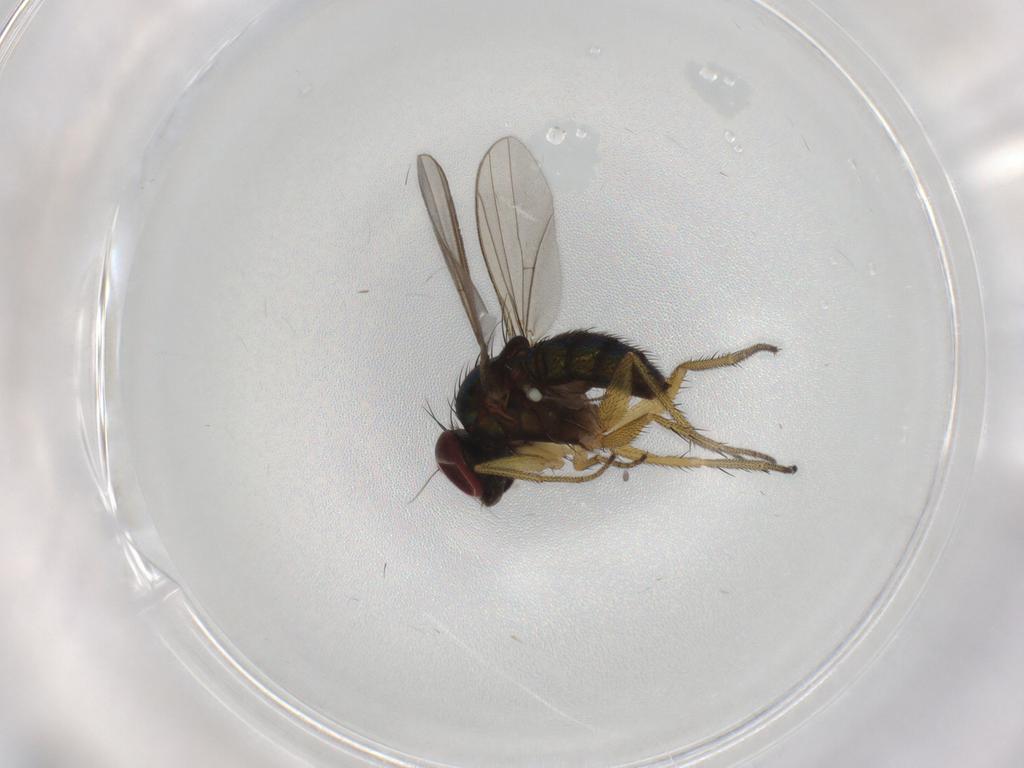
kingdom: Animalia
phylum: Arthropoda
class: Insecta
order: Diptera
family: Dolichopodidae
